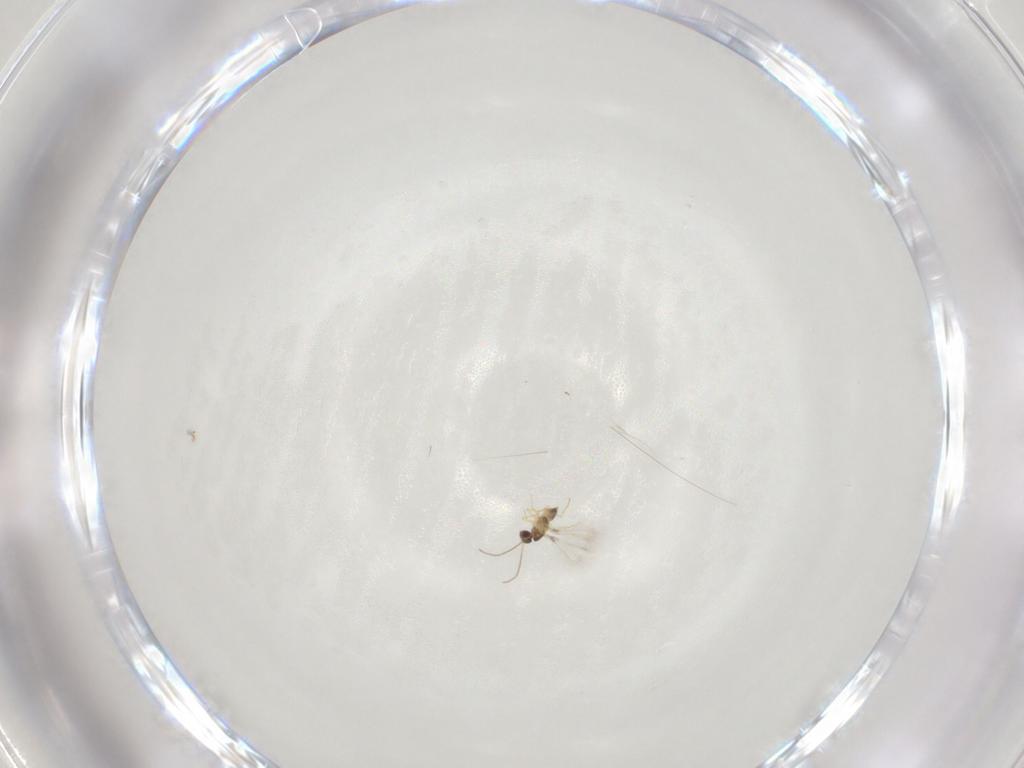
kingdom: Animalia
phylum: Arthropoda
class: Insecta
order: Hymenoptera
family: Mymaridae
